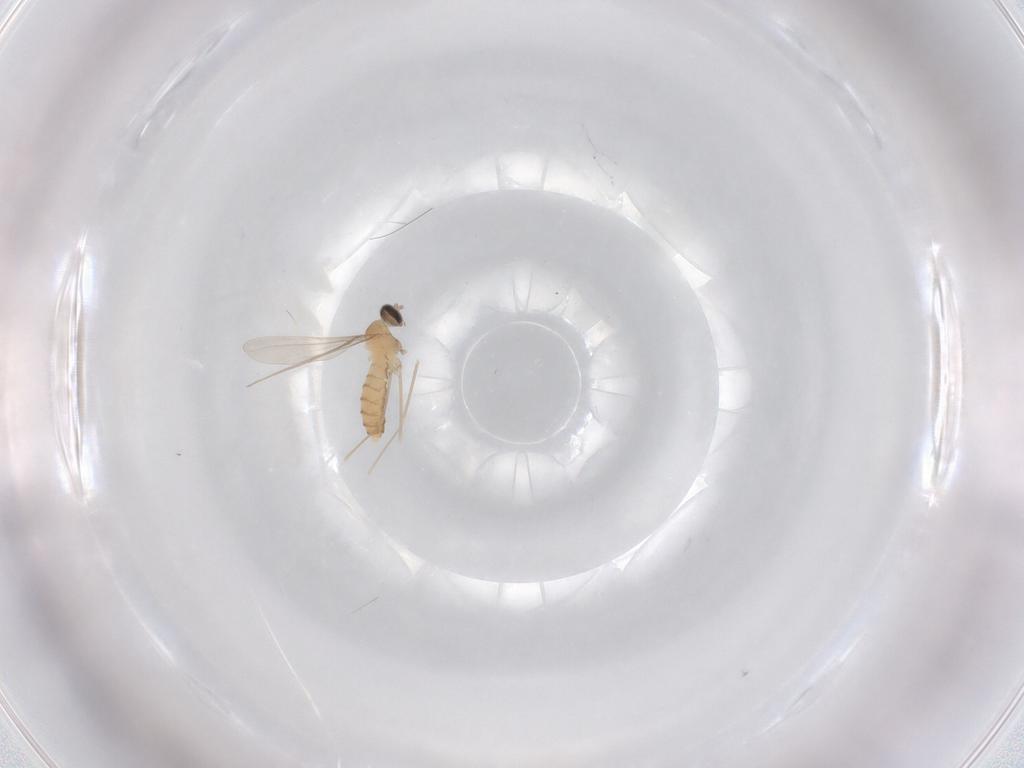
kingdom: Animalia
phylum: Arthropoda
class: Insecta
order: Diptera
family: Cecidomyiidae
